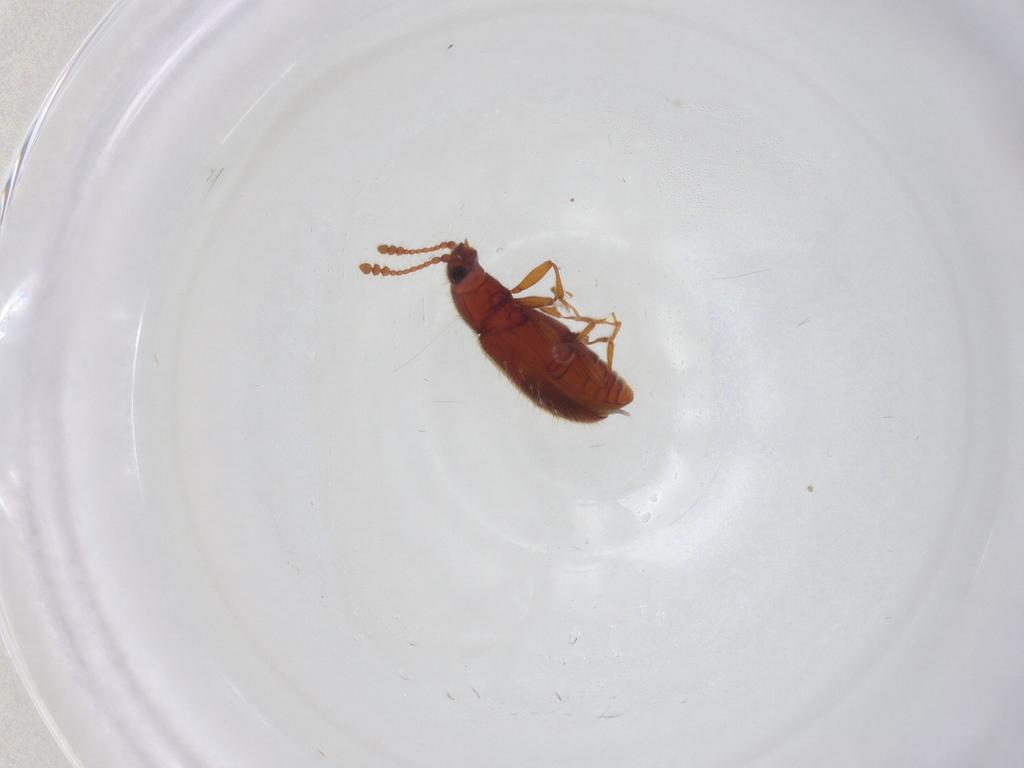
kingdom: Animalia
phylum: Arthropoda
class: Insecta
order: Coleoptera
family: Cryptophagidae
